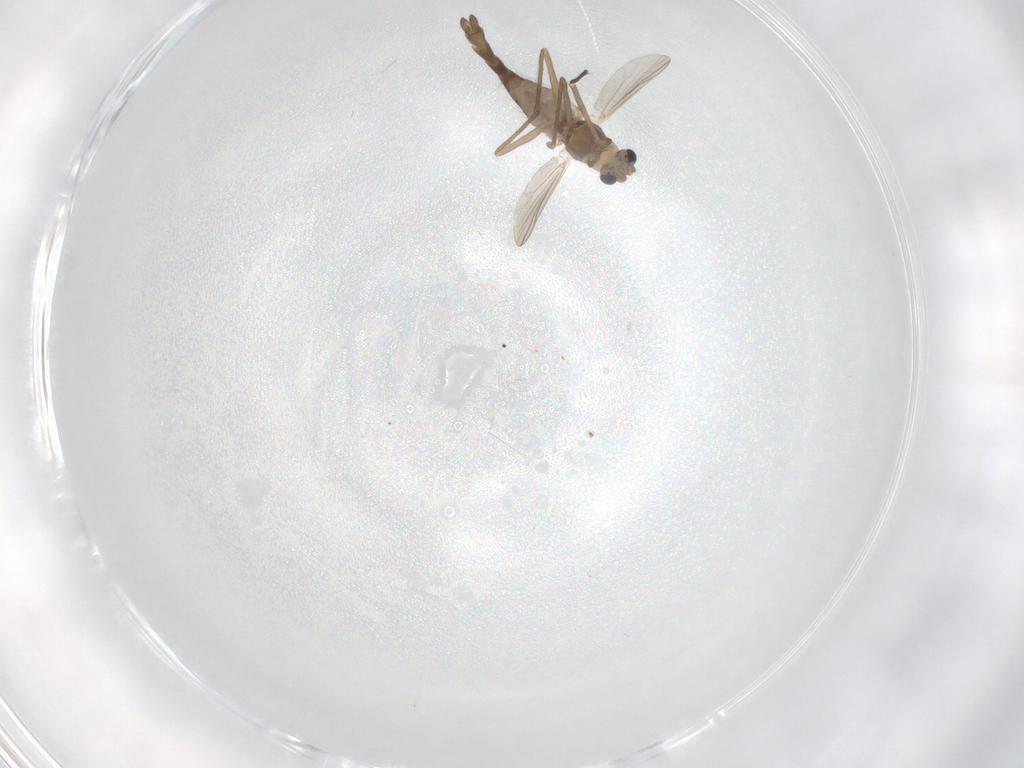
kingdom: Animalia
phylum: Arthropoda
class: Insecta
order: Diptera
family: Chironomidae
